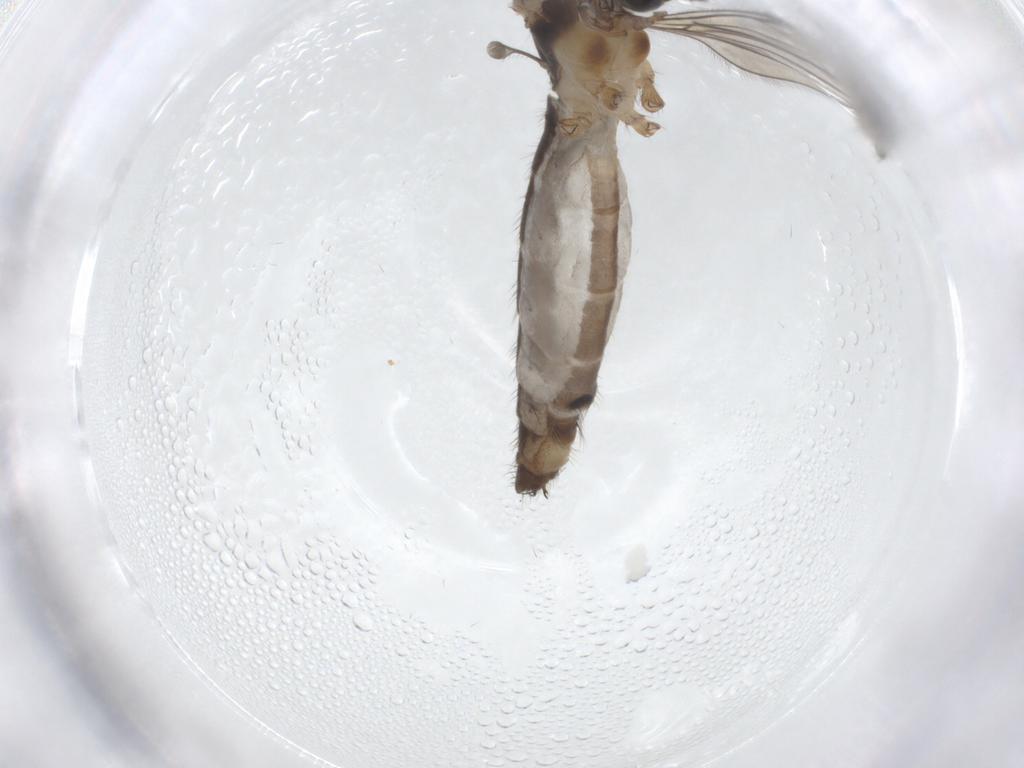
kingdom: Animalia
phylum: Arthropoda
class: Insecta
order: Diptera
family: Limoniidae
